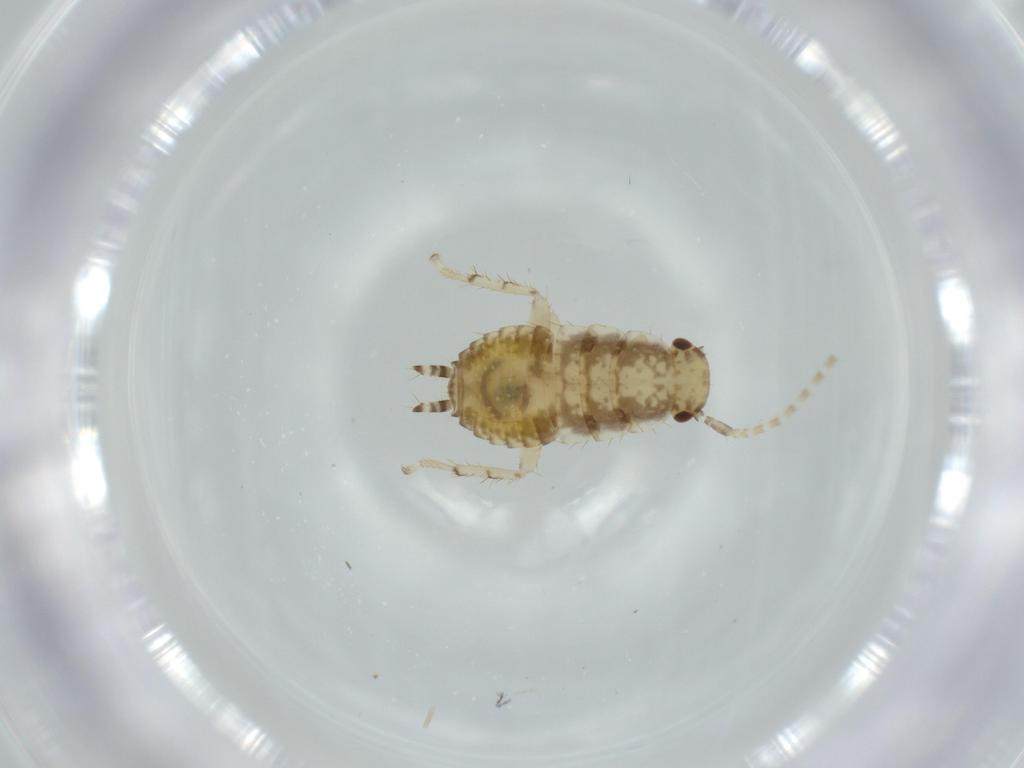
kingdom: Animalia
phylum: Arthropoda
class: Insecta
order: Blattodea
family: Ectobiidae
